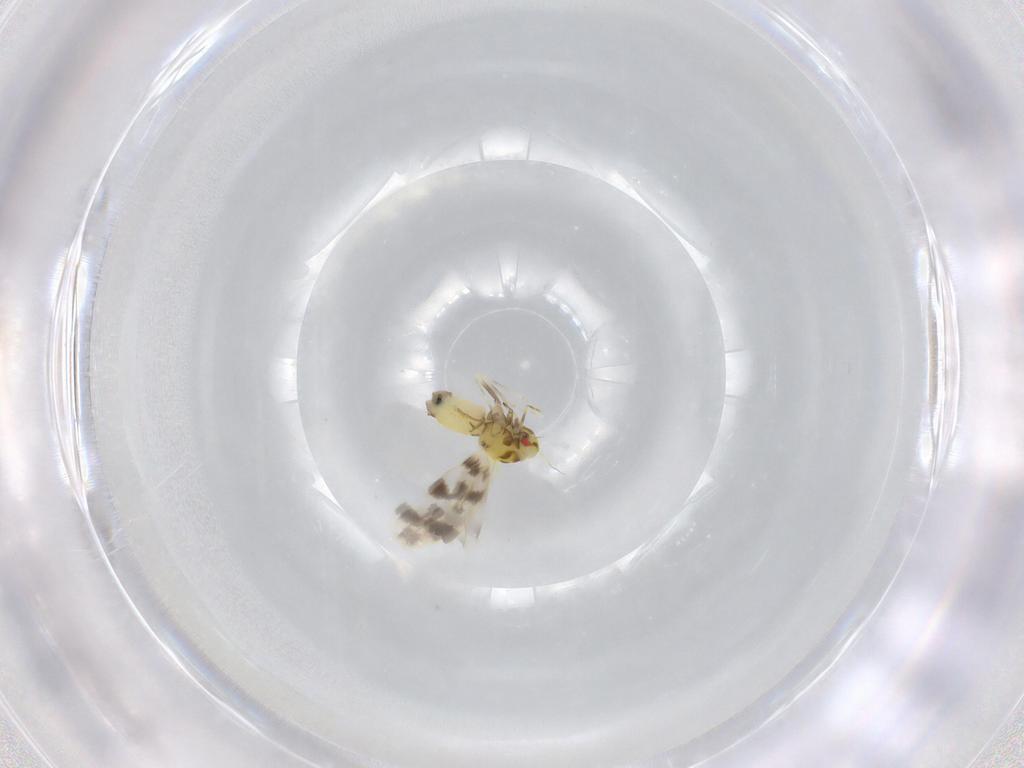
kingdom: Animalia
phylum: Arthropoda
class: Insecta
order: Hemiptera
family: Aleyrodidae
